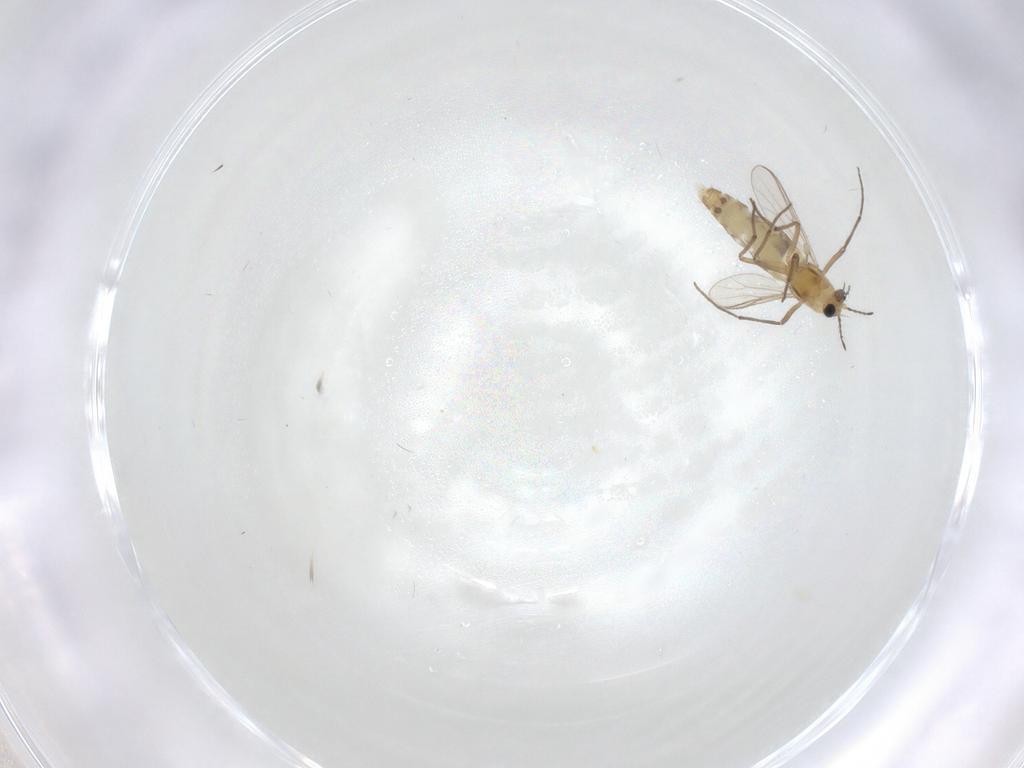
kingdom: Animalia
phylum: Arthropoda
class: Insecta
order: Diptera
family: Psychodidae
